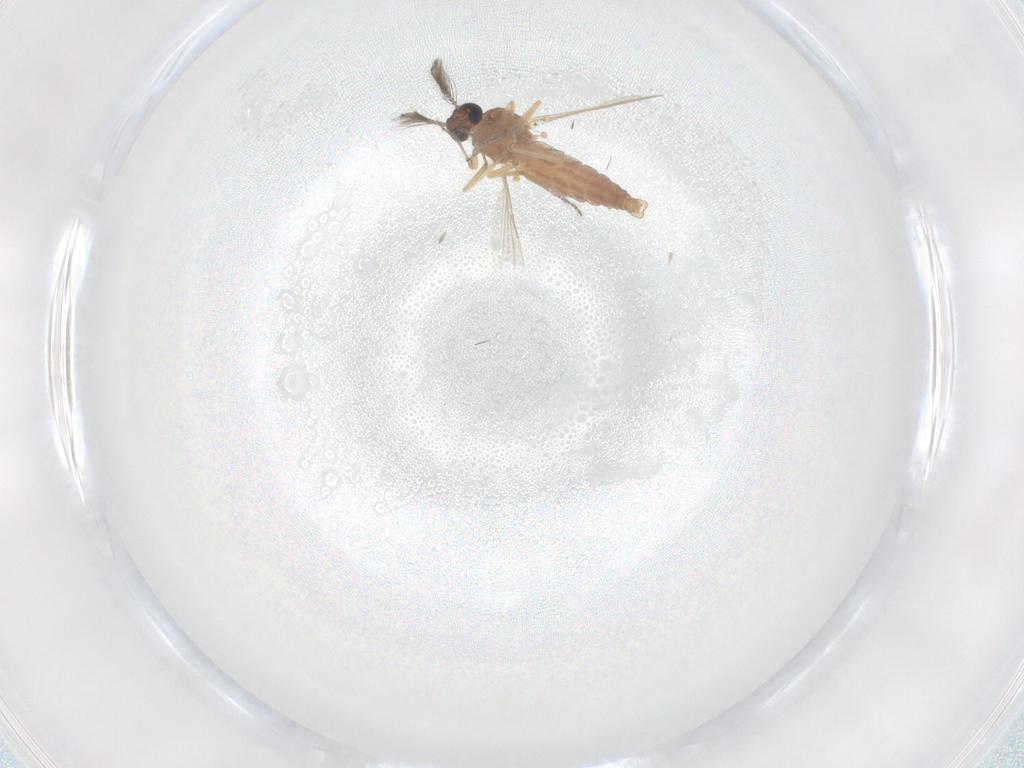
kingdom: Animalia
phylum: Arthropoda
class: Insecta
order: Diptera
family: Ceratopogonidae
